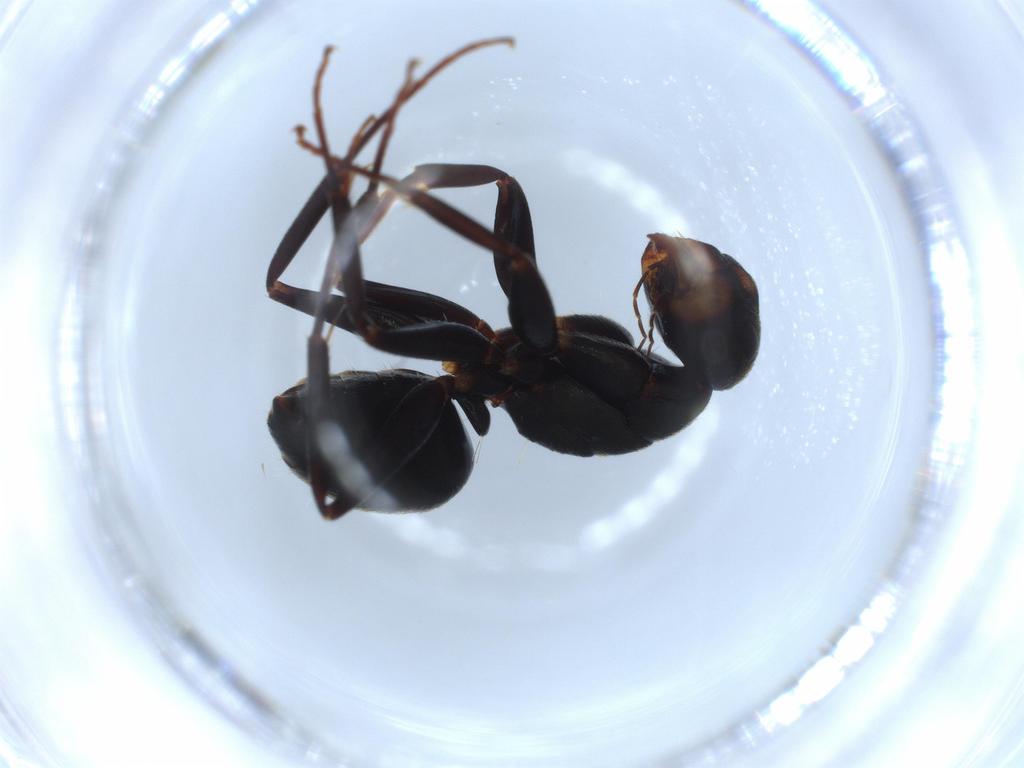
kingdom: Animalia
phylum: Arthropoda
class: Insecta
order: Hymenoptera
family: Formicidae
